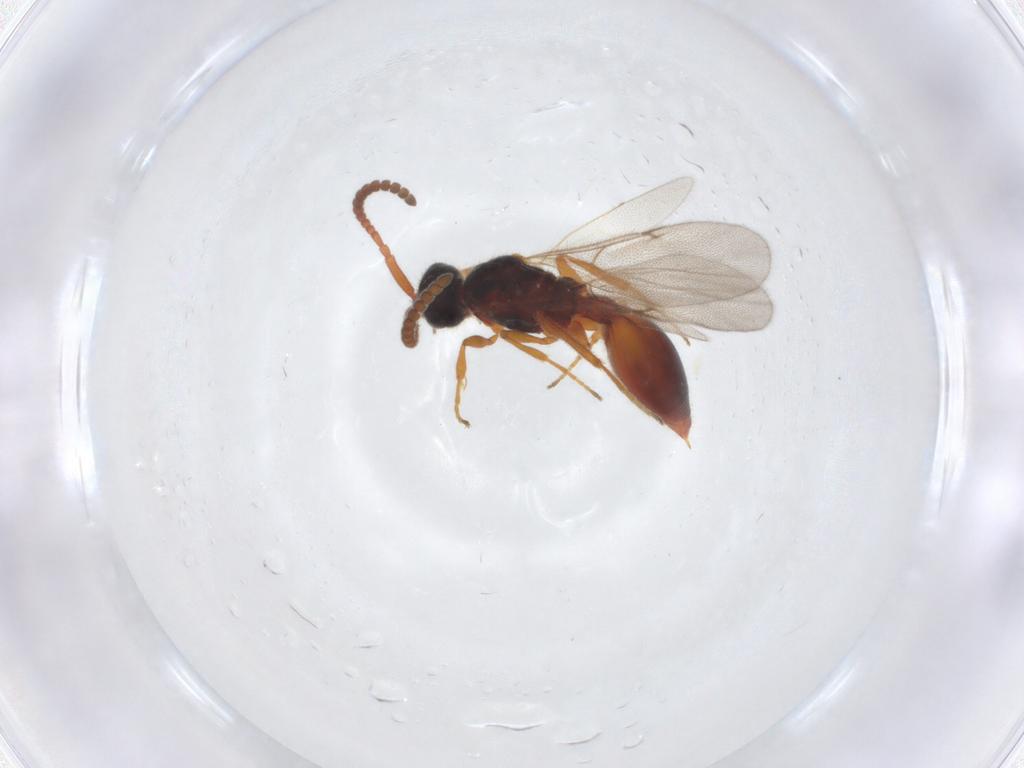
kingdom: Animalia
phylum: Arthropoda
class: Insecta
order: Hymenoptera
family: Diapriidae
